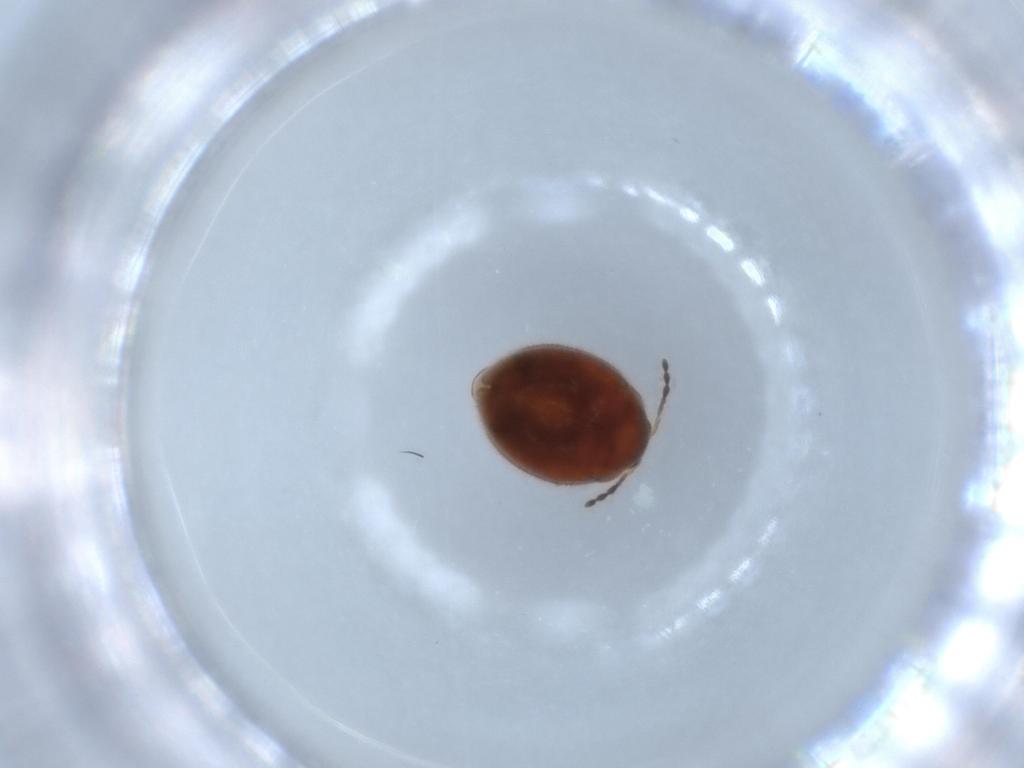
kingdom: Animalia
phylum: Arthropoda
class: Insecta
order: Coleoptera
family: Anamorphidae
